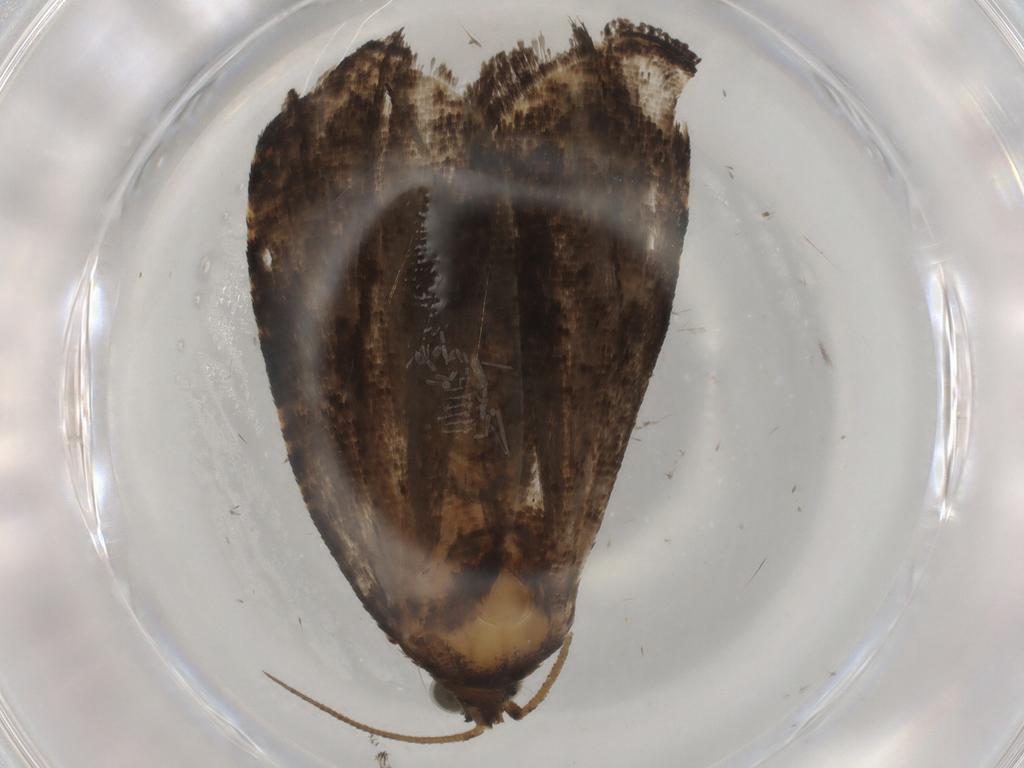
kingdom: Animalia
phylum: Arthropoda
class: Insecta
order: Lepidoptera
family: Tortricidae
